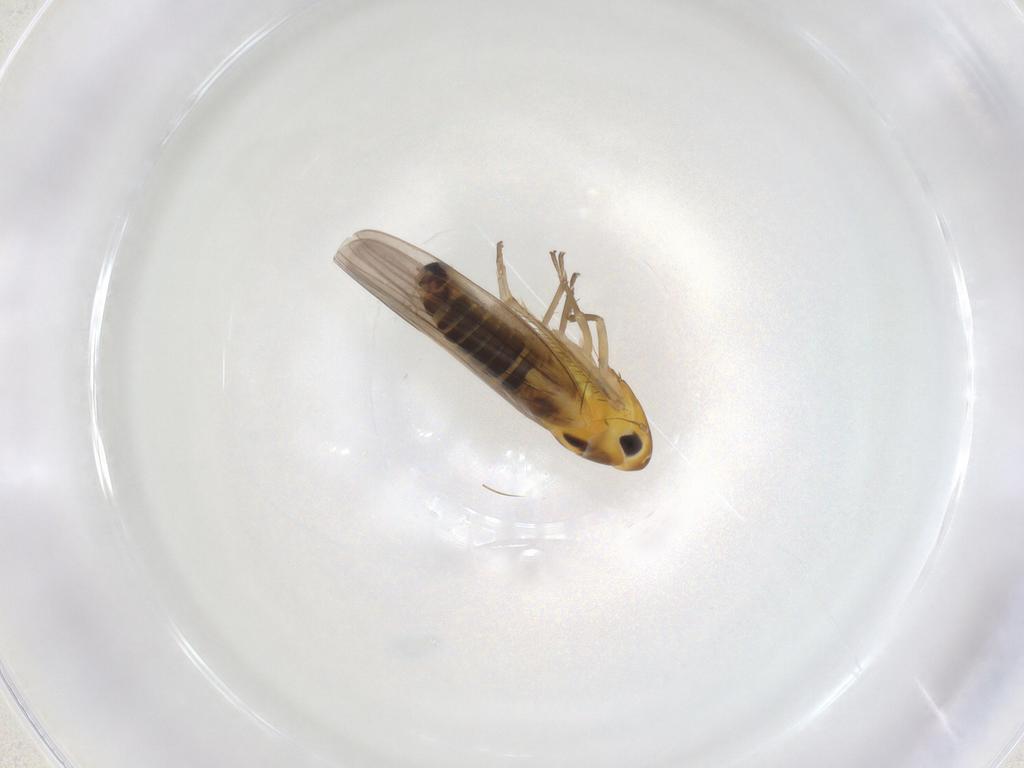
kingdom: Animalia
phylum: Arthropoda
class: Insecta
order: Hemiptera
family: Cicadellidae
